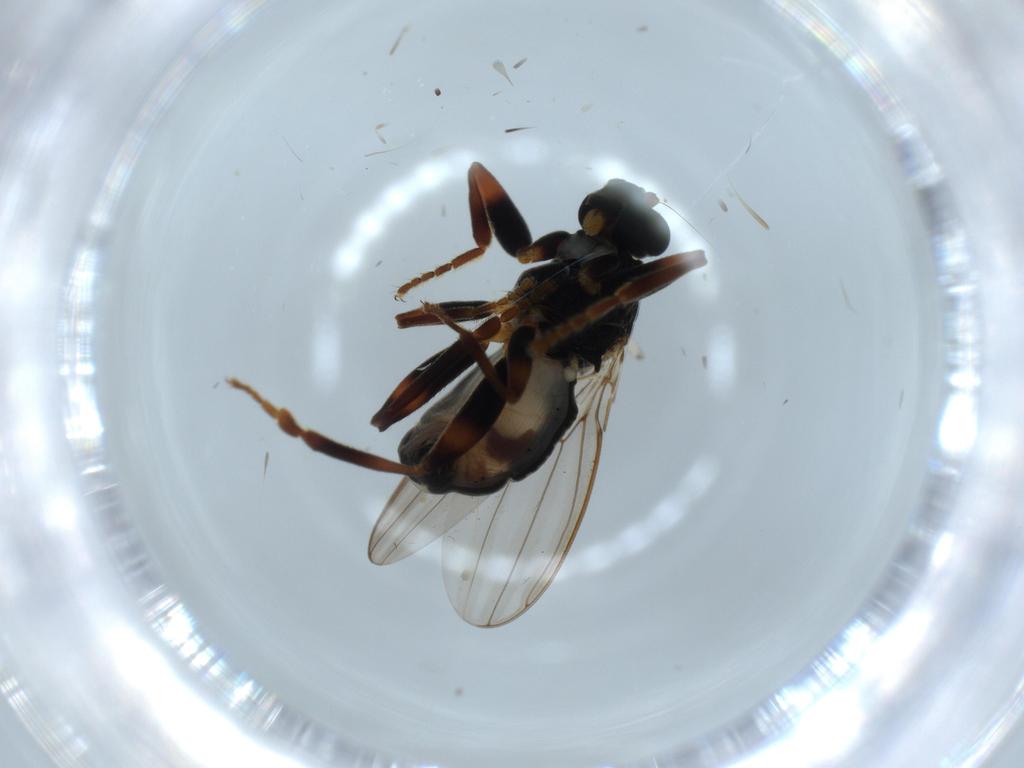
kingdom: Animalia
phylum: Arthropoda
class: Insecta
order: Diptera
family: Sphaeroceridae
